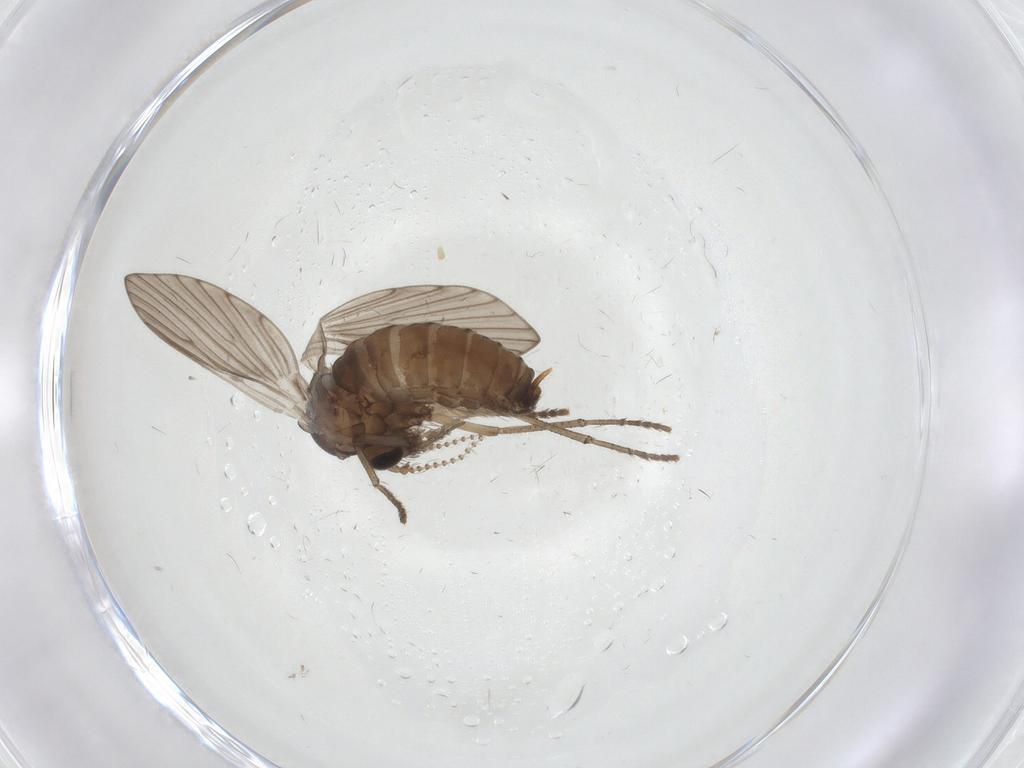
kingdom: Animalia
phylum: Arthropoda
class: Insecta
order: Diptera
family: Psychodidae
